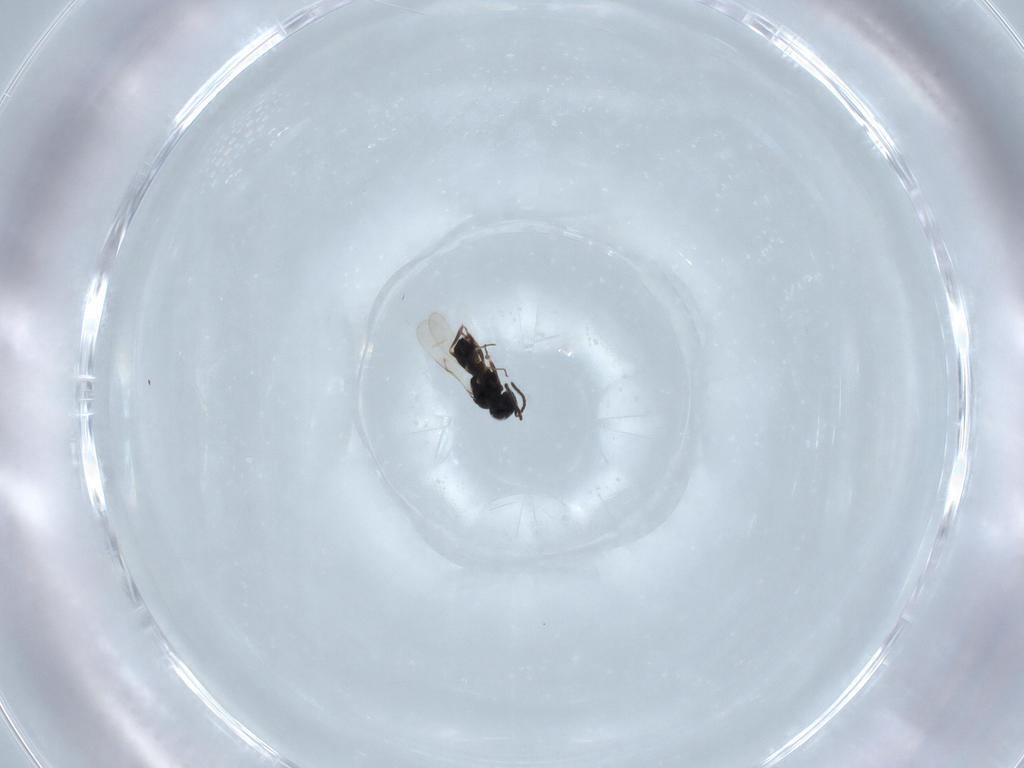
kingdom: Animalia
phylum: Arthropoda
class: Insecta
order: Hymenoptera
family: Scelionidae
